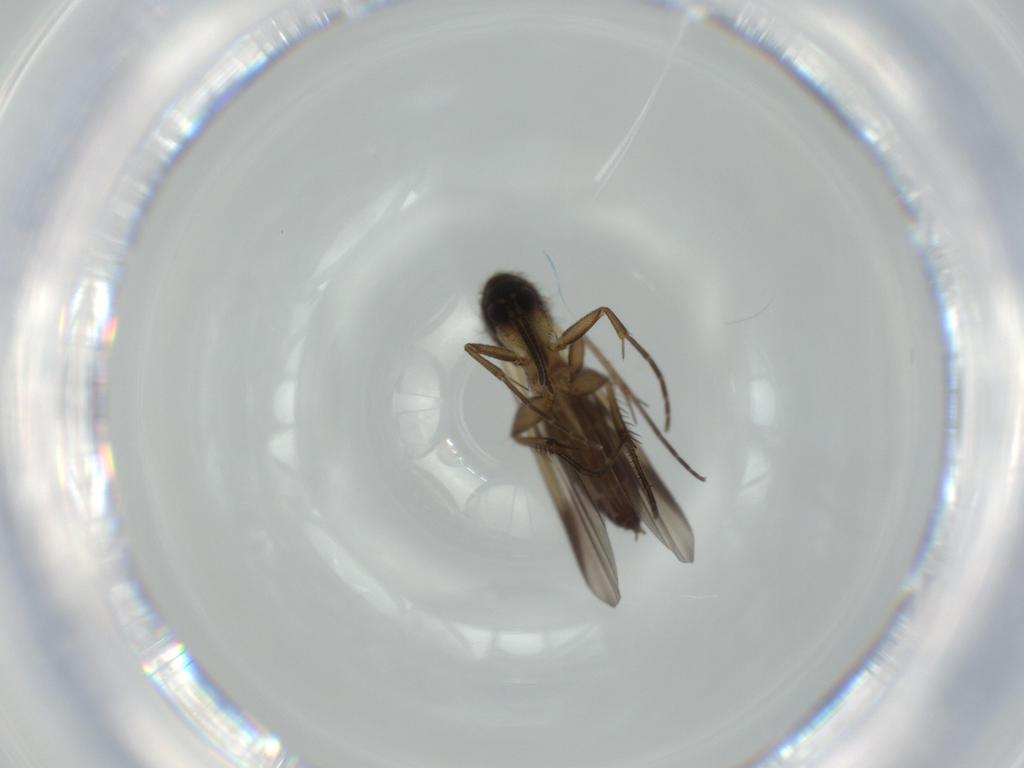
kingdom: Animalia
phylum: Arthropoda
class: Insecta
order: Diptera
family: Mycetophilidae
